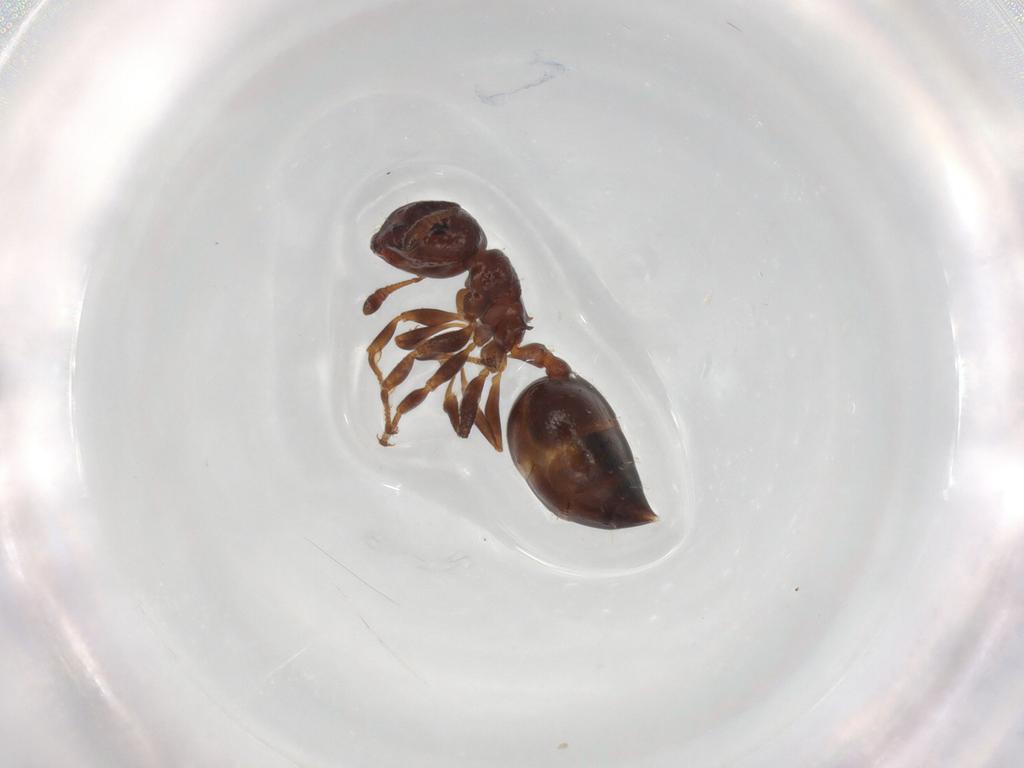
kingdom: Animalia
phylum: Arthropoda
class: Insecta
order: Hymenoptera
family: Formicidae
